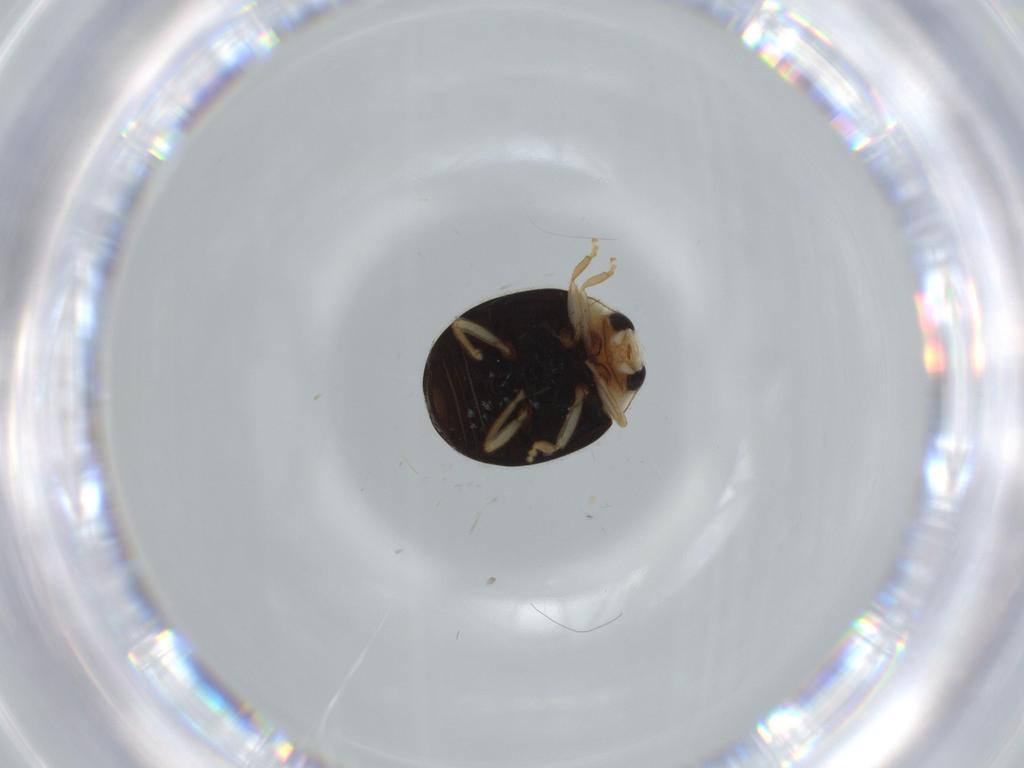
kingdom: Animalia
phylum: Arthropoda
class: Insecta
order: Coleoptera
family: Coccinellidae
